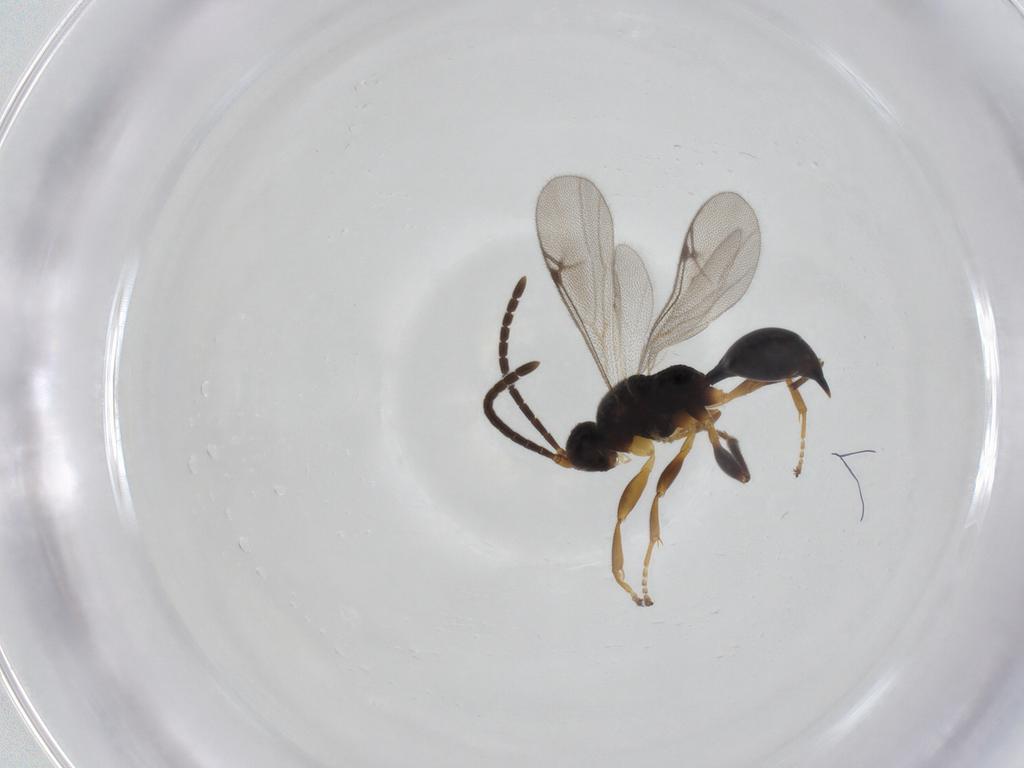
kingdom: Animalia
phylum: Arthropoda
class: Insecta
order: Hymenoptera
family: Proctotrupidae
